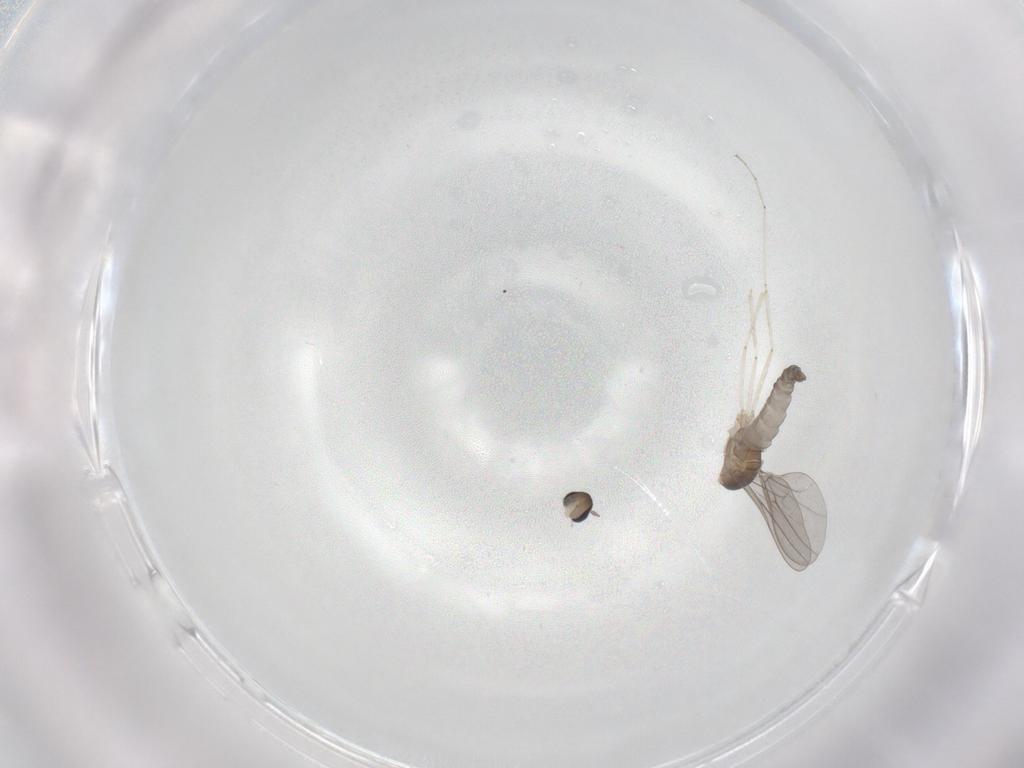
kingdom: Animalia
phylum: Arthropoda
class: Insecta
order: Diptera
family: Cecidomyiidae
